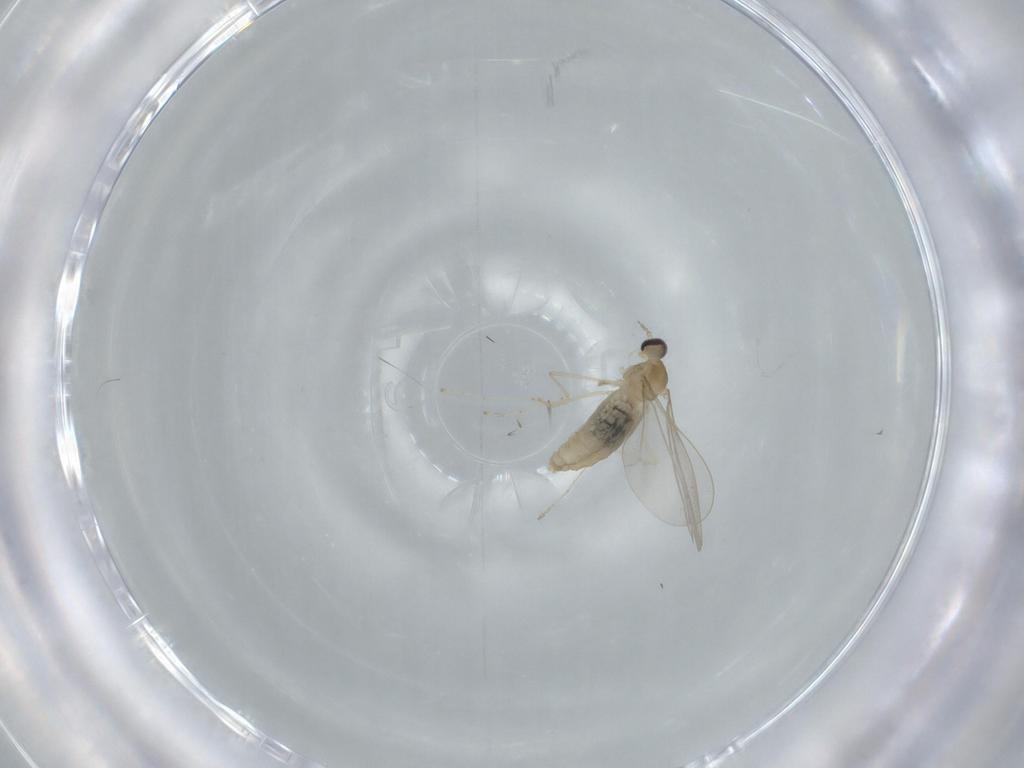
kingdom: Animalia
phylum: Arthropoda
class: Insecta
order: Diptera
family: Cecidomyiidae
